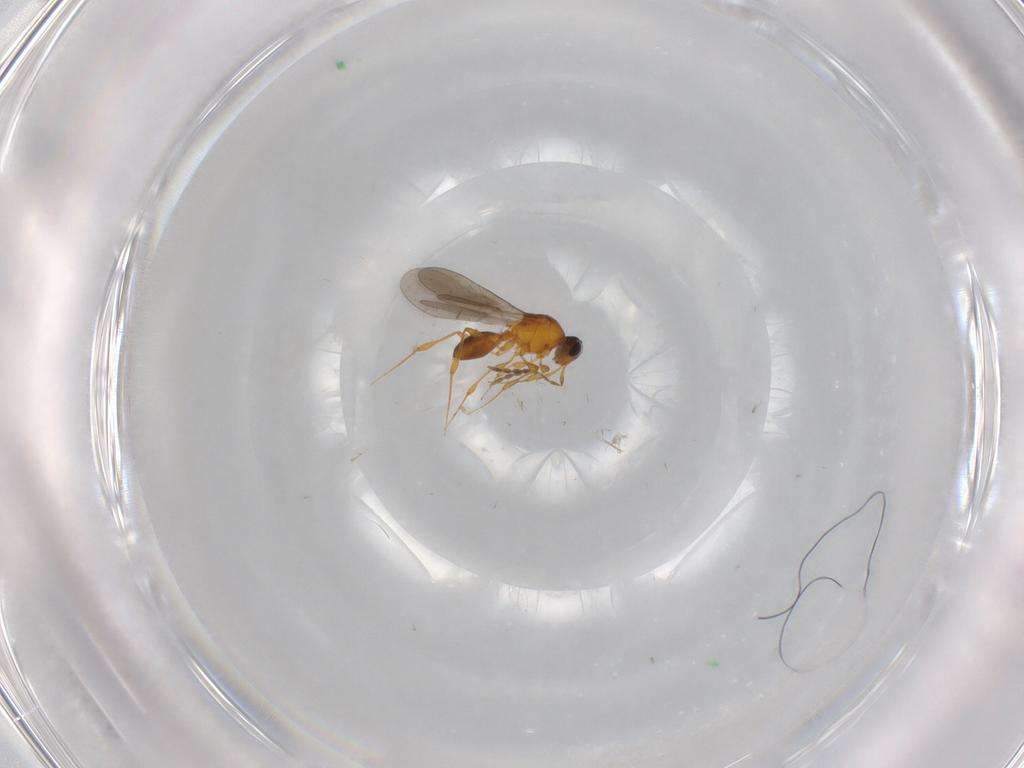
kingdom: Animalia
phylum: Arthropoda
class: Insecta
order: Hymenoptera
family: Platygastridae
